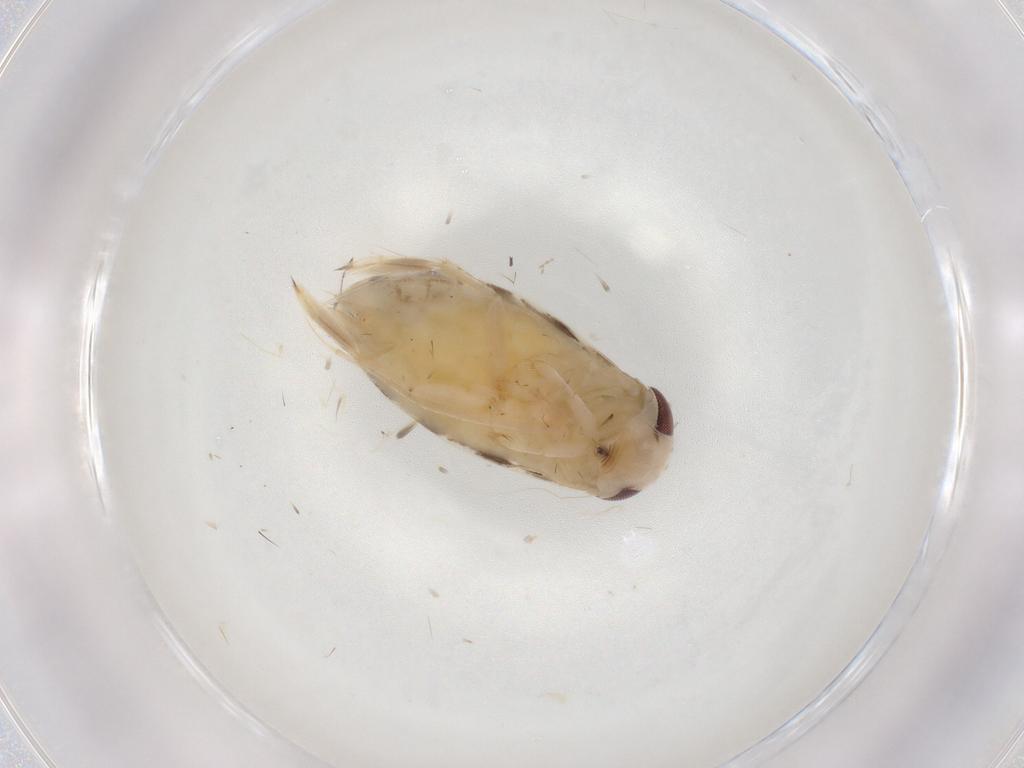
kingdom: Animalia
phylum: Arthropoda
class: Insecta
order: Hemiptera
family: Corixidae
